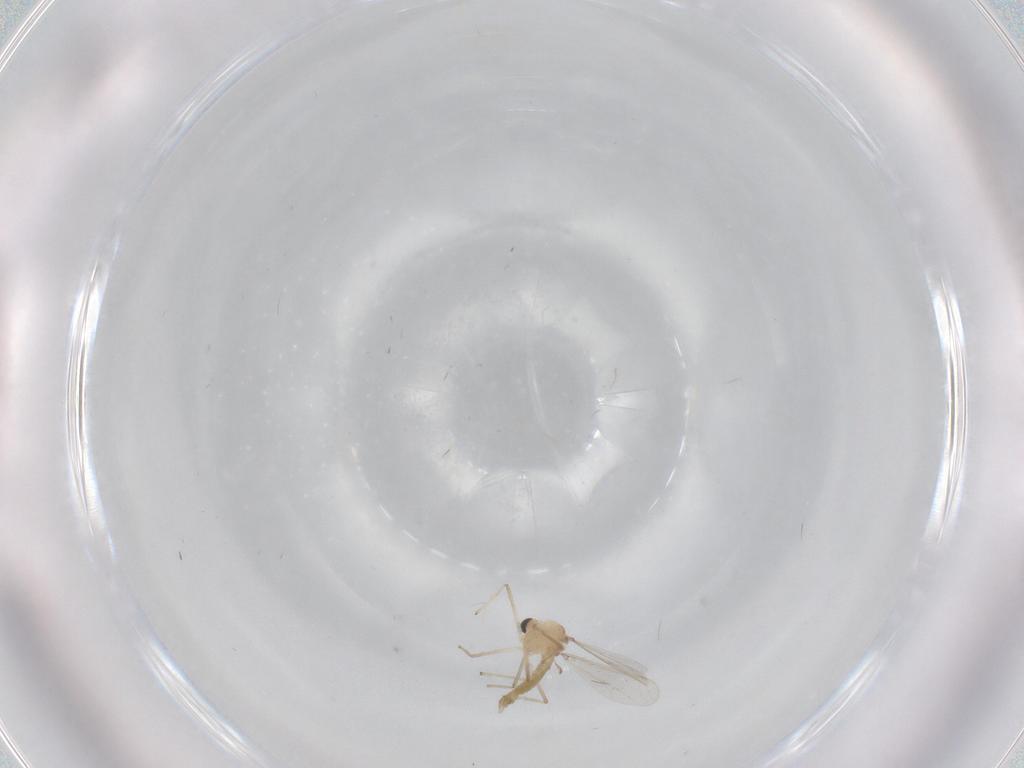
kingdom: Animalia
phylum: Arthropoda
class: Insecta
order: Diptera
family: Chironomidae
